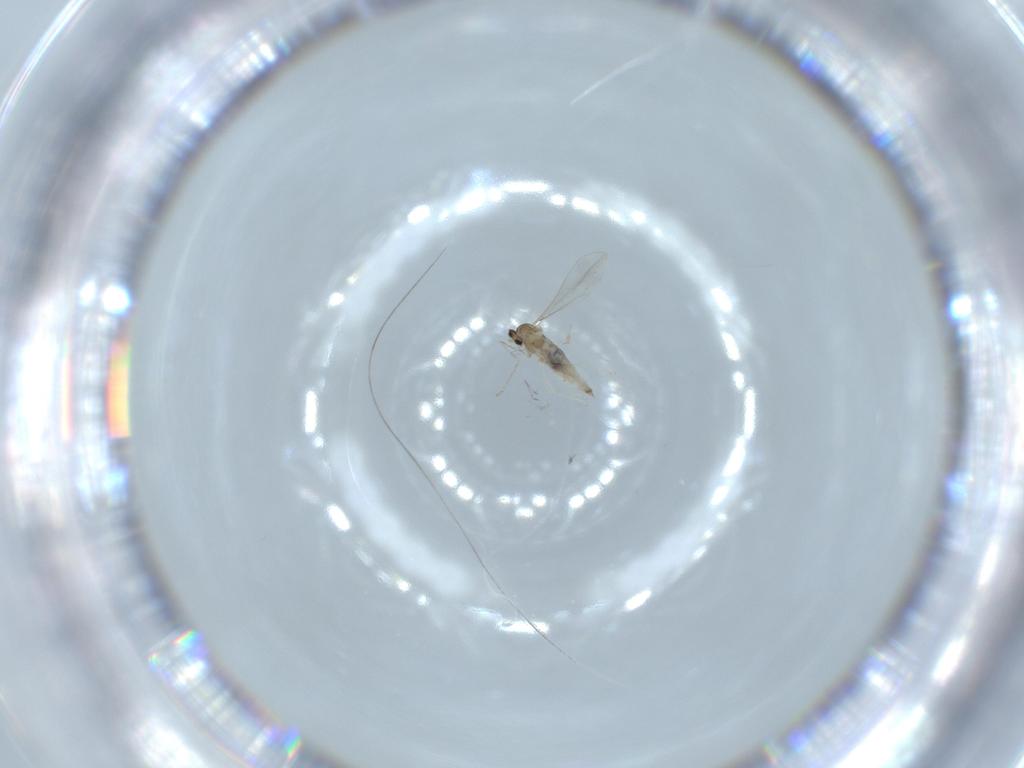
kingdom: Animalia
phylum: Arthropoda
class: Insecta
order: Diptera
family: Cecidomyiidae
